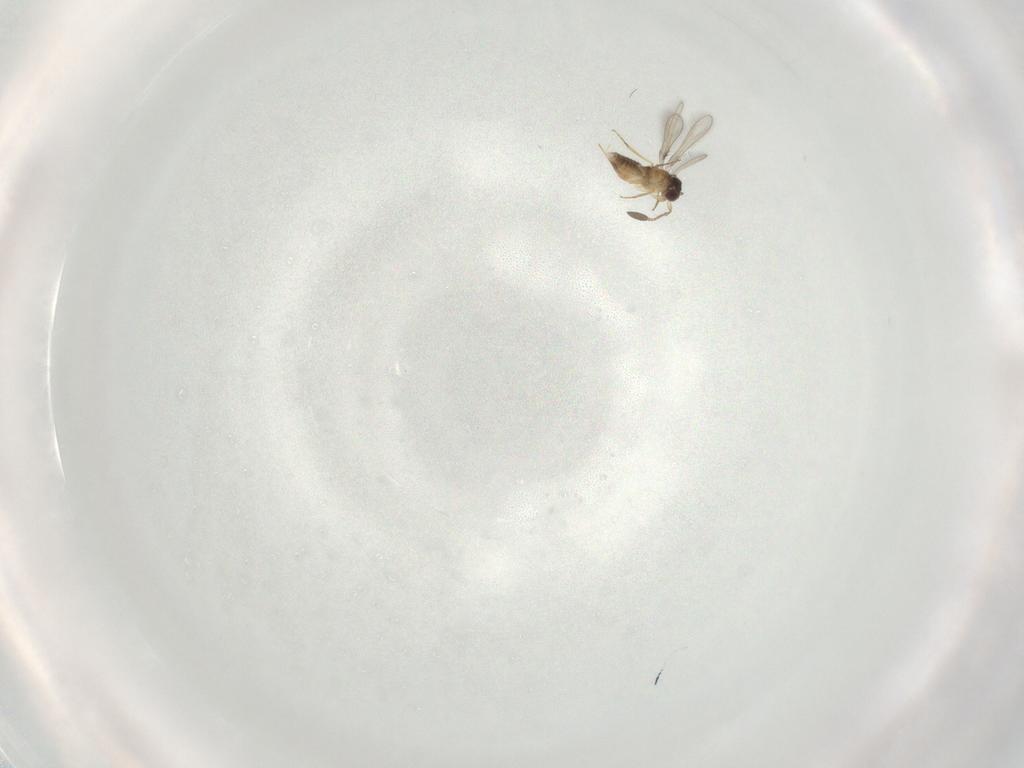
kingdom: Animalia
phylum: Arthropoda
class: Insecta
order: Hymenoptera
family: Mymaridae
